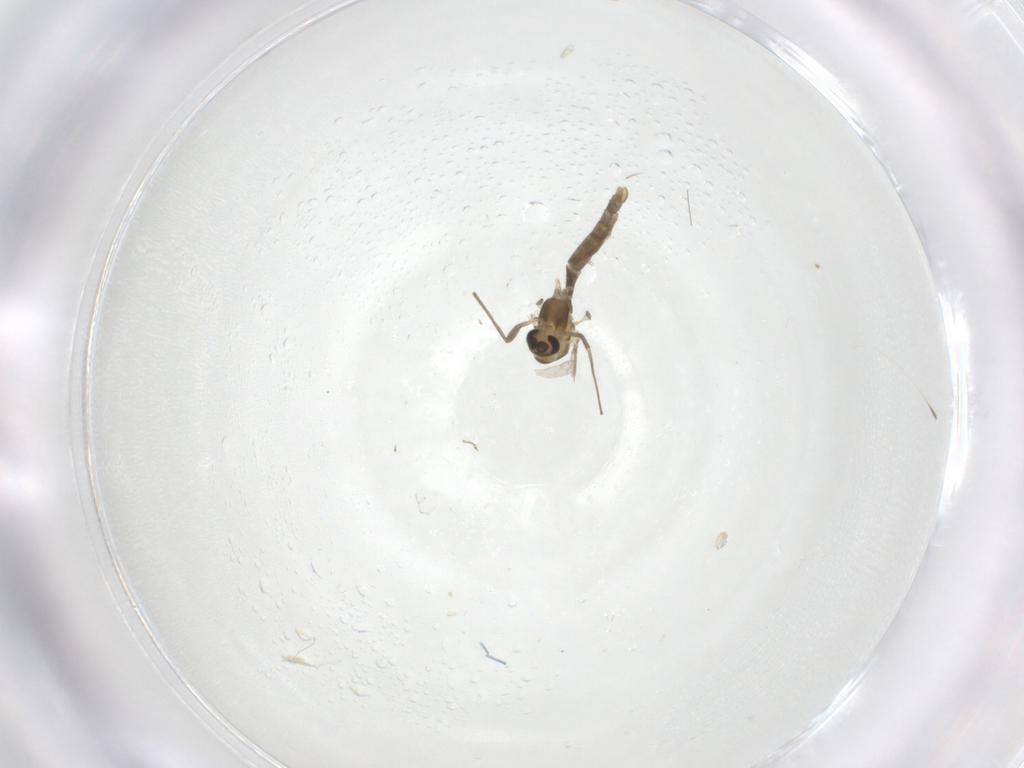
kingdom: Animalia
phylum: Arthropoda
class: Insecta
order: Diptera
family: Chironomidae
